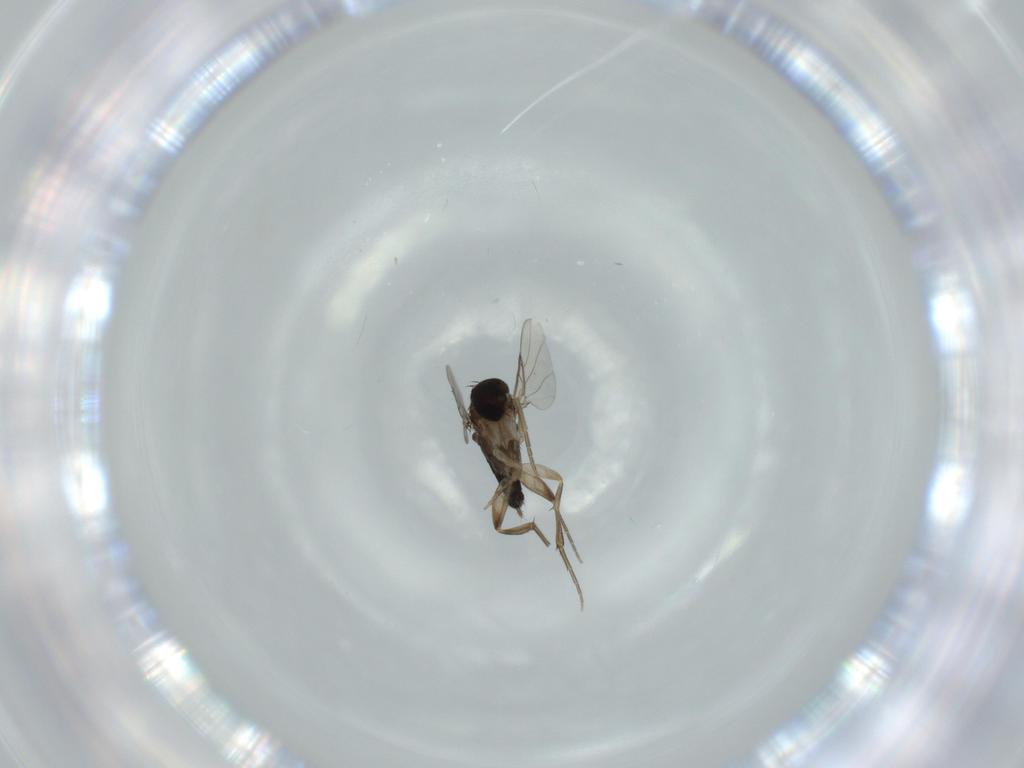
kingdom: Animalia
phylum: Arthropoda
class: Insecta
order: Diptera
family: Phoridae
